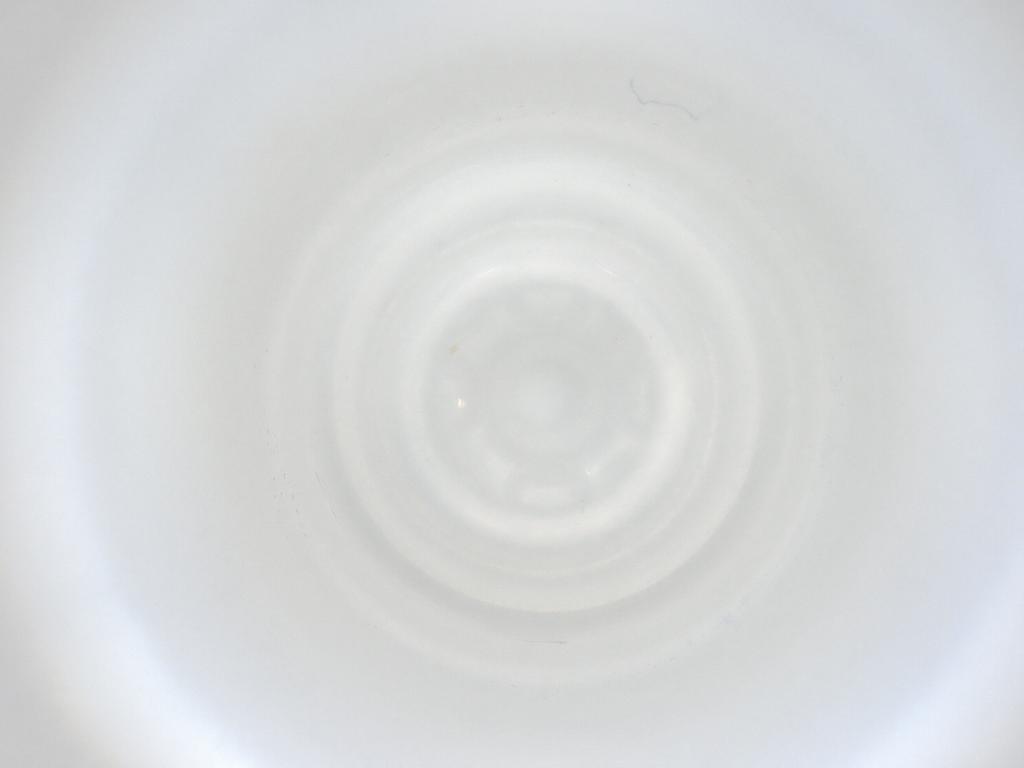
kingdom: Animalia
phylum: Arthropoda
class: Insecta
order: Diptera
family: Cecidomyiidae
